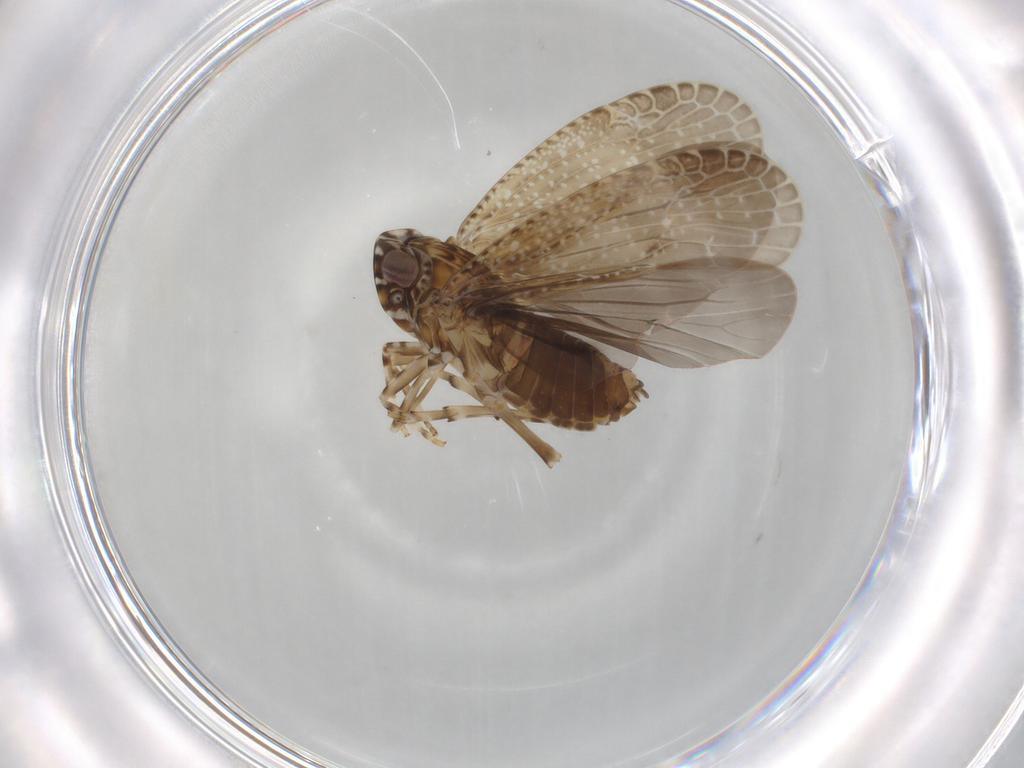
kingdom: Animalia
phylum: Arthropoda
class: Insecta
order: Hemiptera
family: Achilidae
